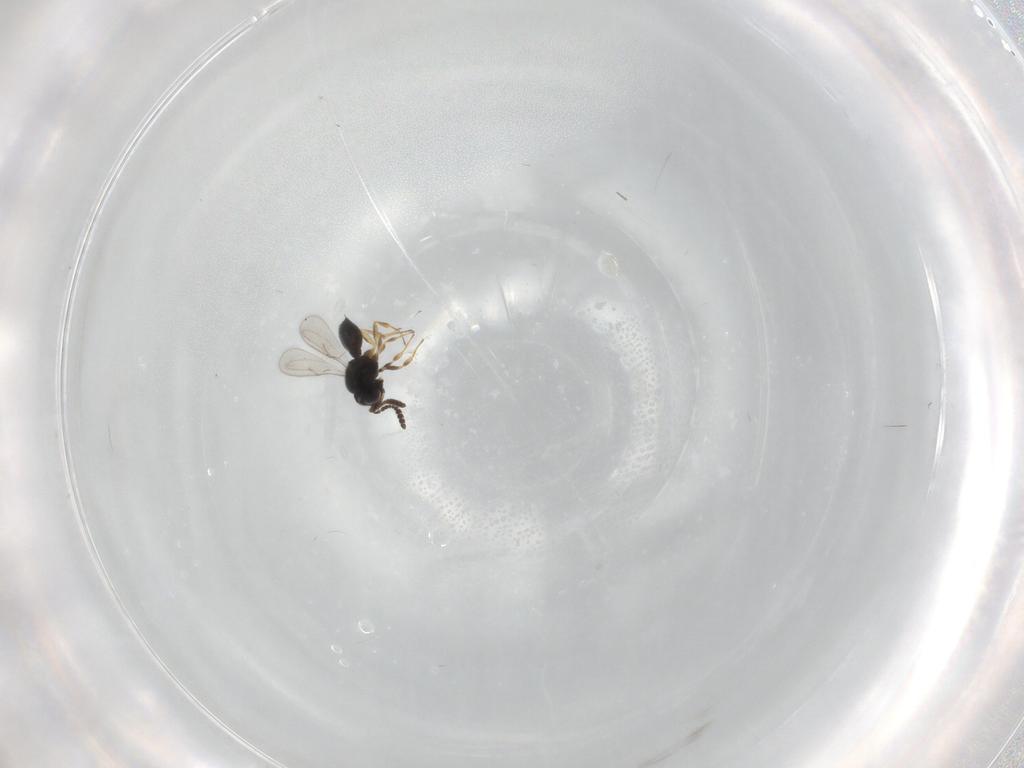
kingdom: Animalia
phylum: Arthropoda
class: Insecta
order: Hymenoptera
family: Scelionidae
